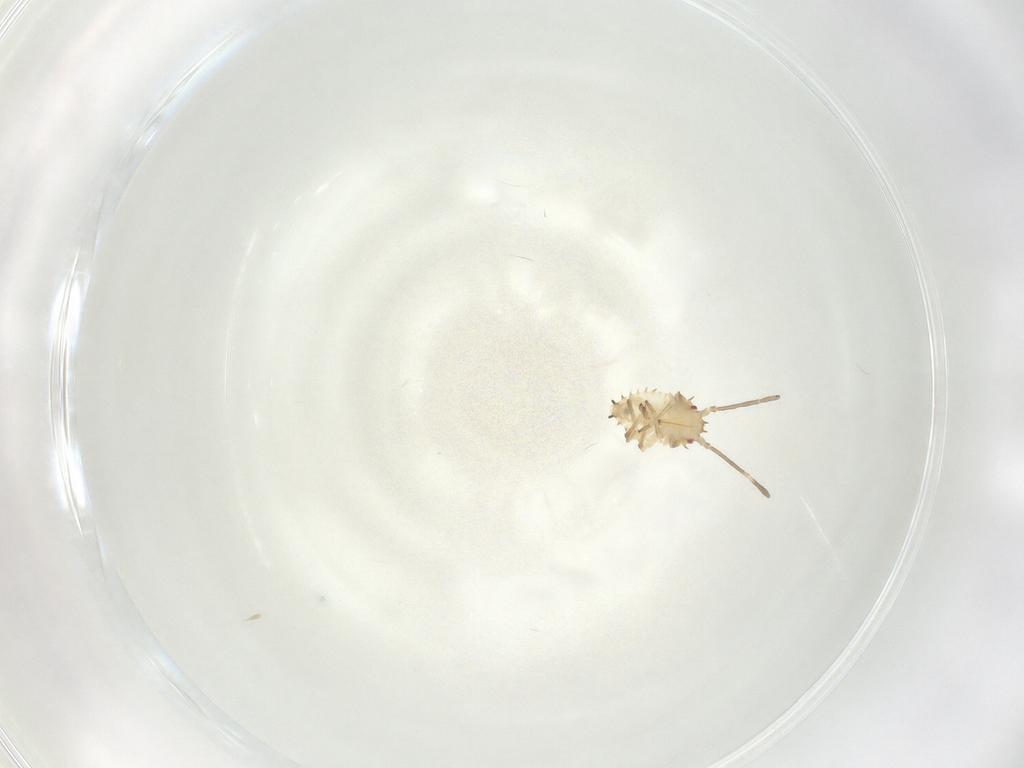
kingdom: Animalia
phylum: Arthropoda
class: Insecta
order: Hemiptera
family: Tingidae
